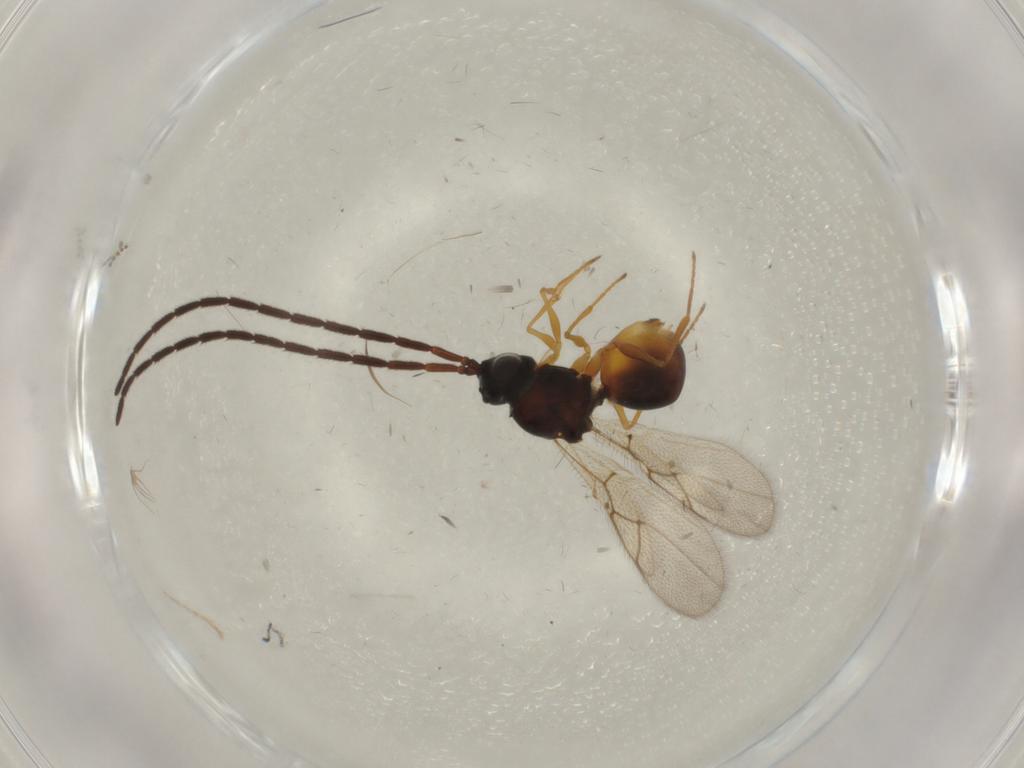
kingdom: Animalia
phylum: Arthropoda
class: Insecta
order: Hymenoptera
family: Figitidae
